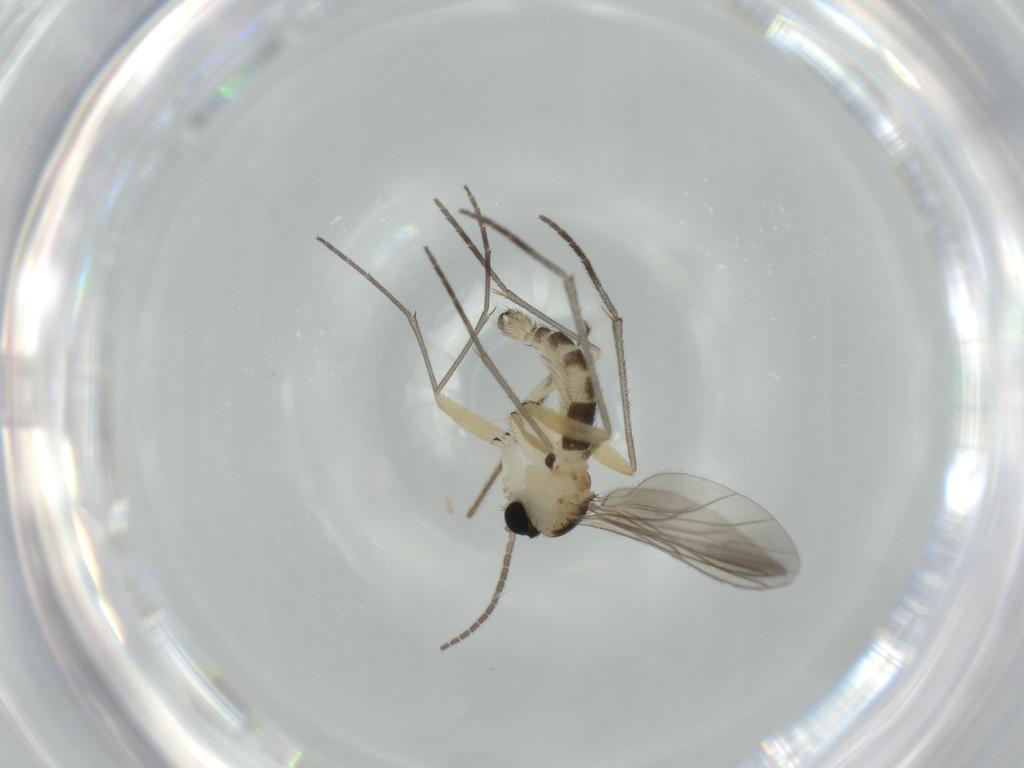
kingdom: Animalia
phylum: Arthropoda
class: Insecta
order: Diptera
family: Sciaridae
